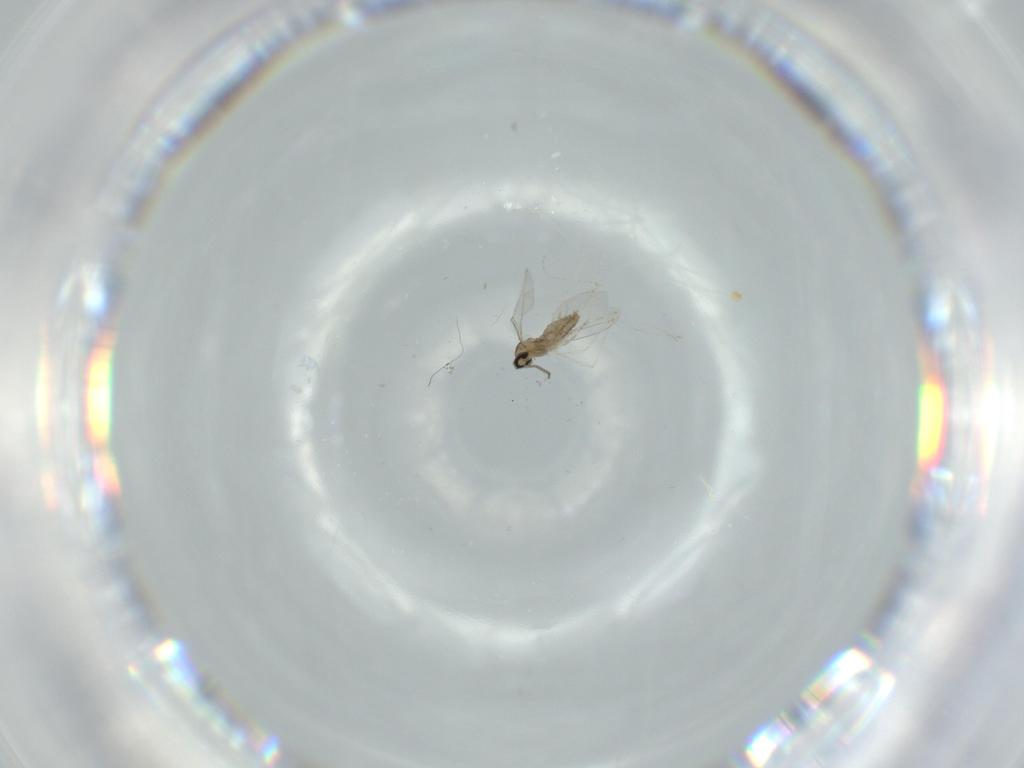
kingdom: Animalia
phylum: Arthropoda
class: Insecta
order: Diptera
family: Cecidomyiidae
